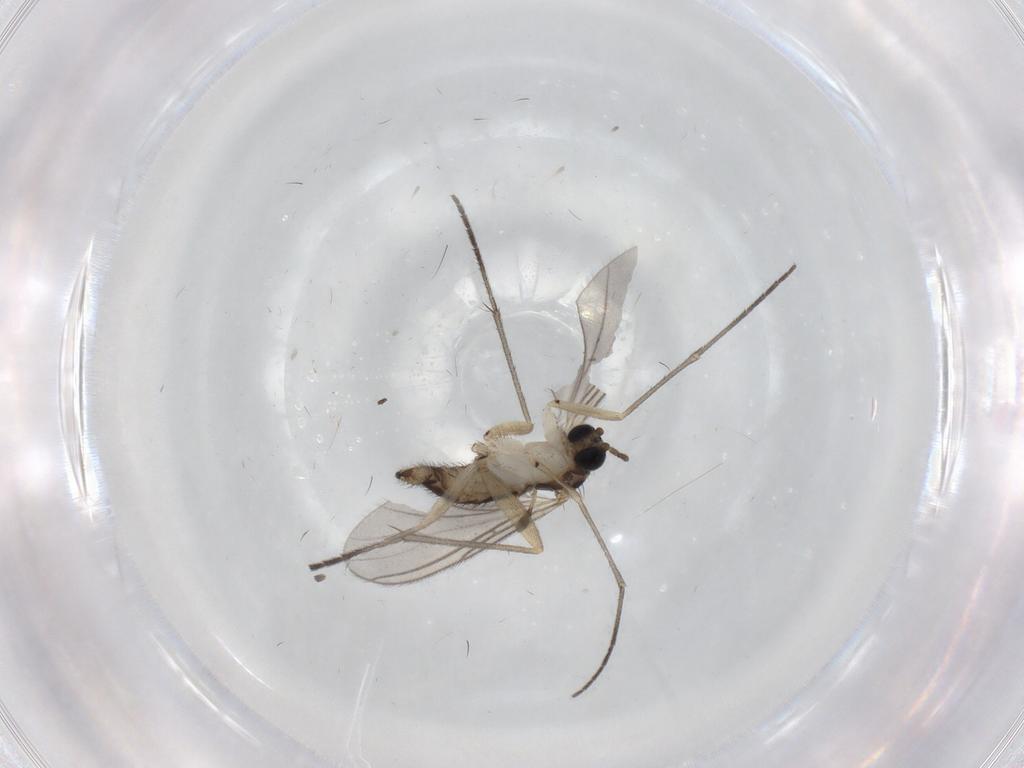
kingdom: Animalia
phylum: Arthropoda
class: Insecta
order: Diptera
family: Sciaridae
